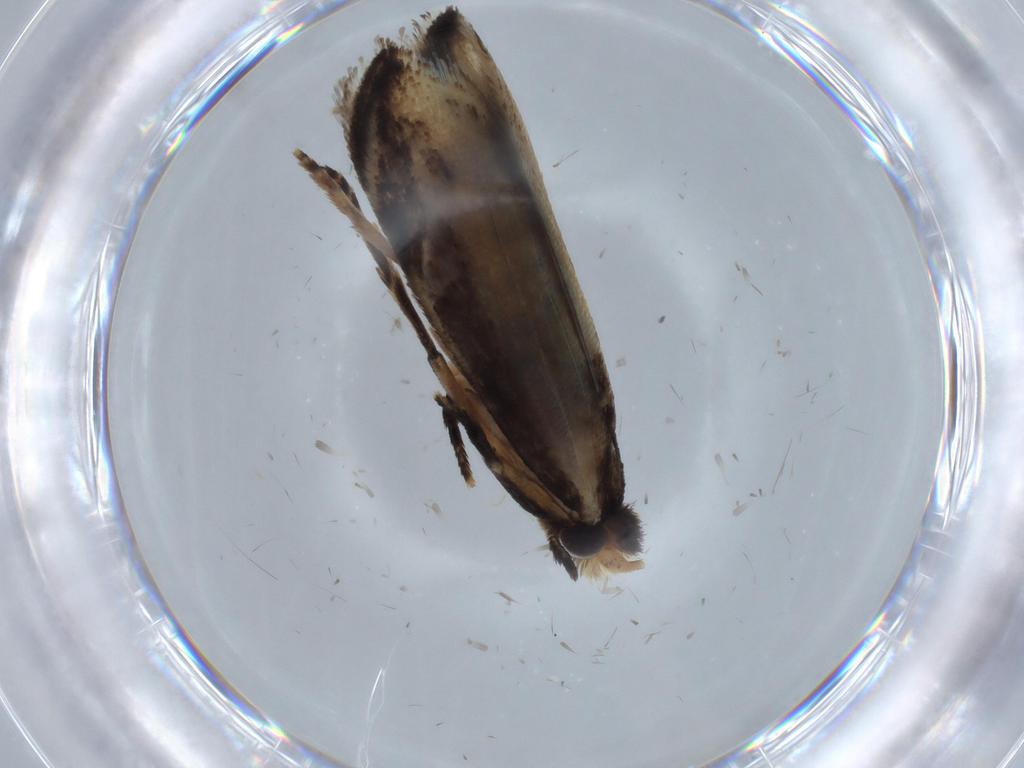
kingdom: Animalia
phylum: Arthropoda
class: Insecta
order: Lepidoptera
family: Tineidae
